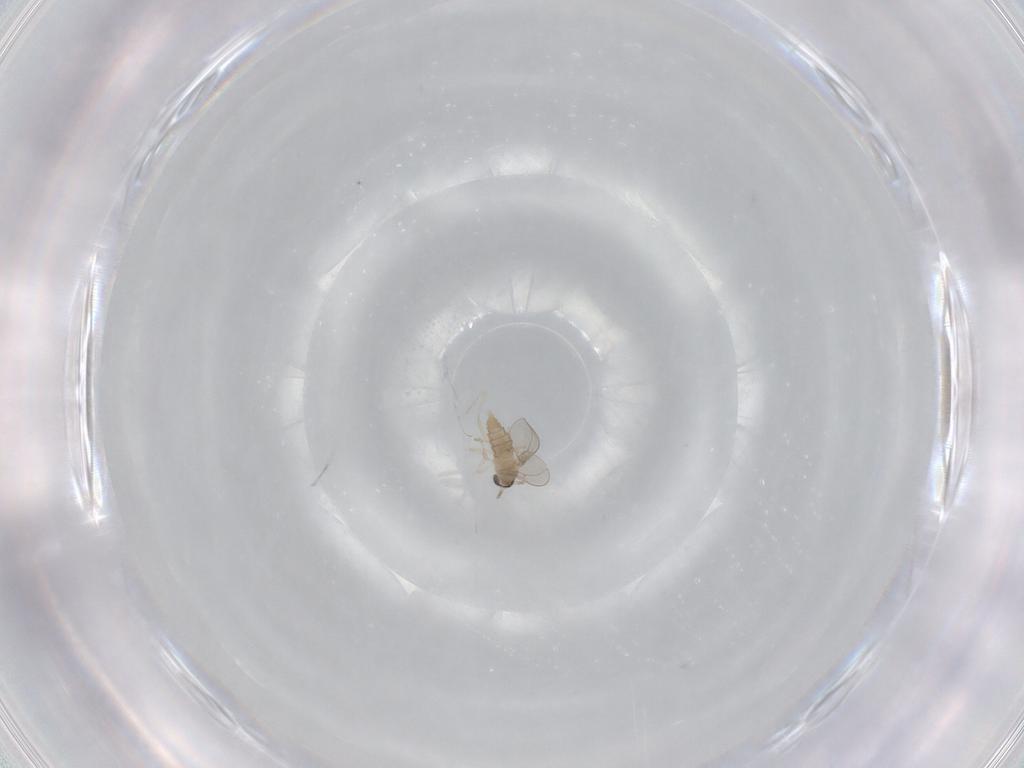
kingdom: Animalia
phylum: Arthropoda
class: Insecta
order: Diptera
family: Cecidomyiidae
